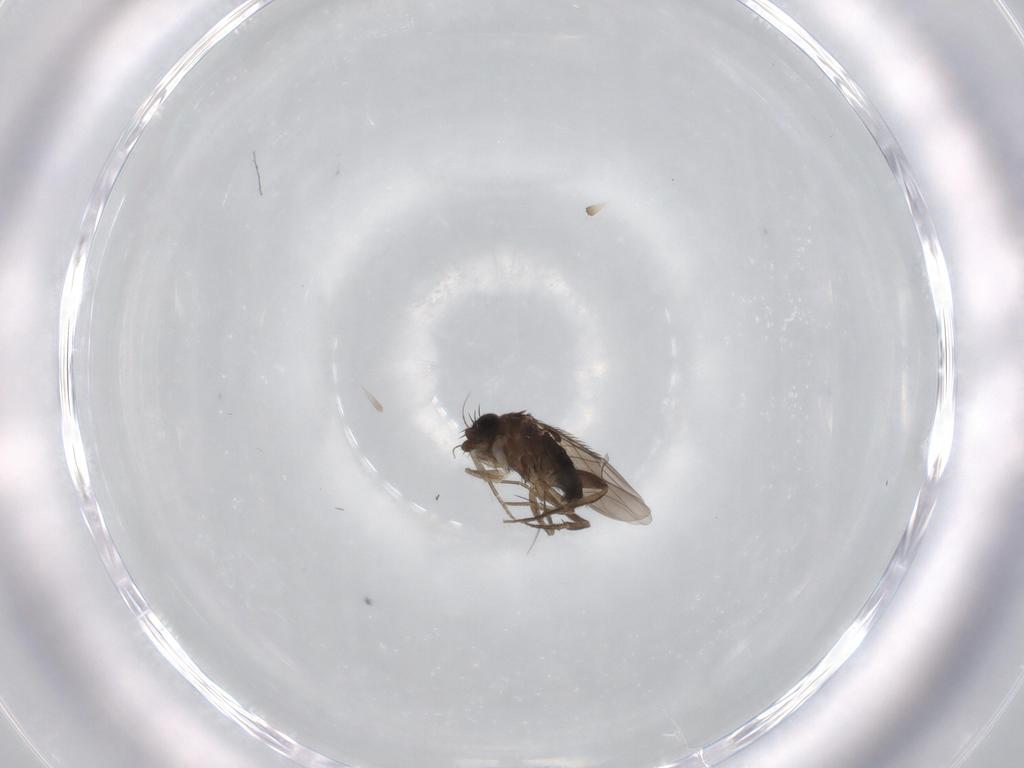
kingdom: Animalia
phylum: Arthropoda
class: Insecta
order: Diptera
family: Phoridae
